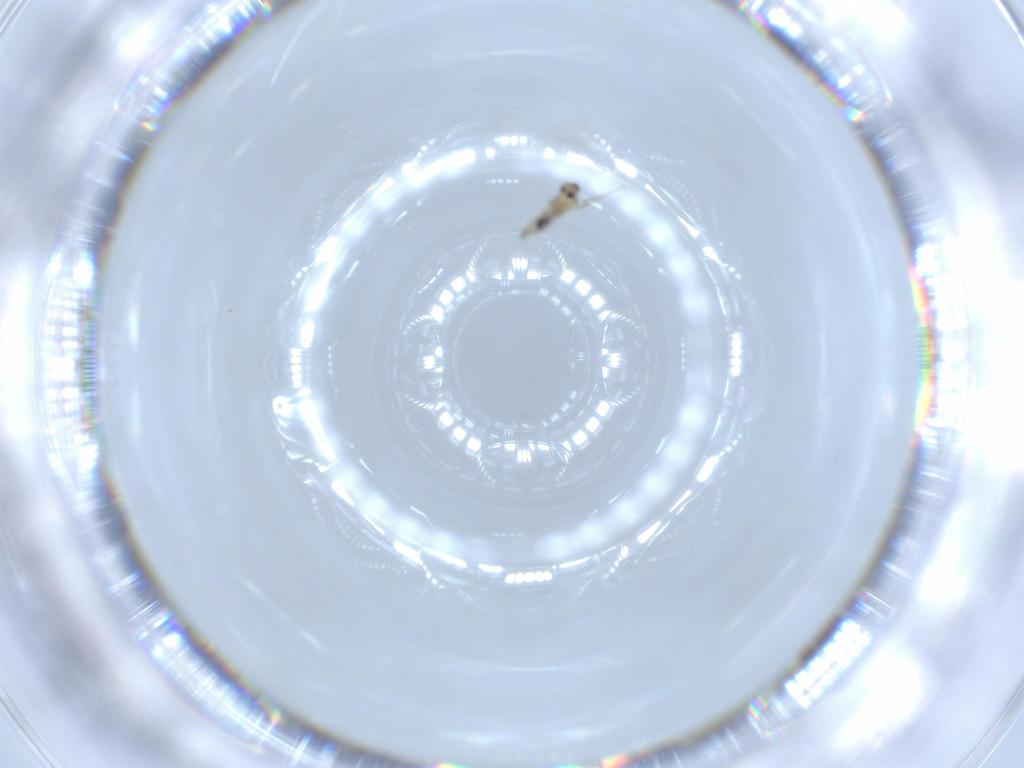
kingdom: Animalia
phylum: Arthropoda
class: Insecta
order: Diptera
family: Cecidomyiidae
